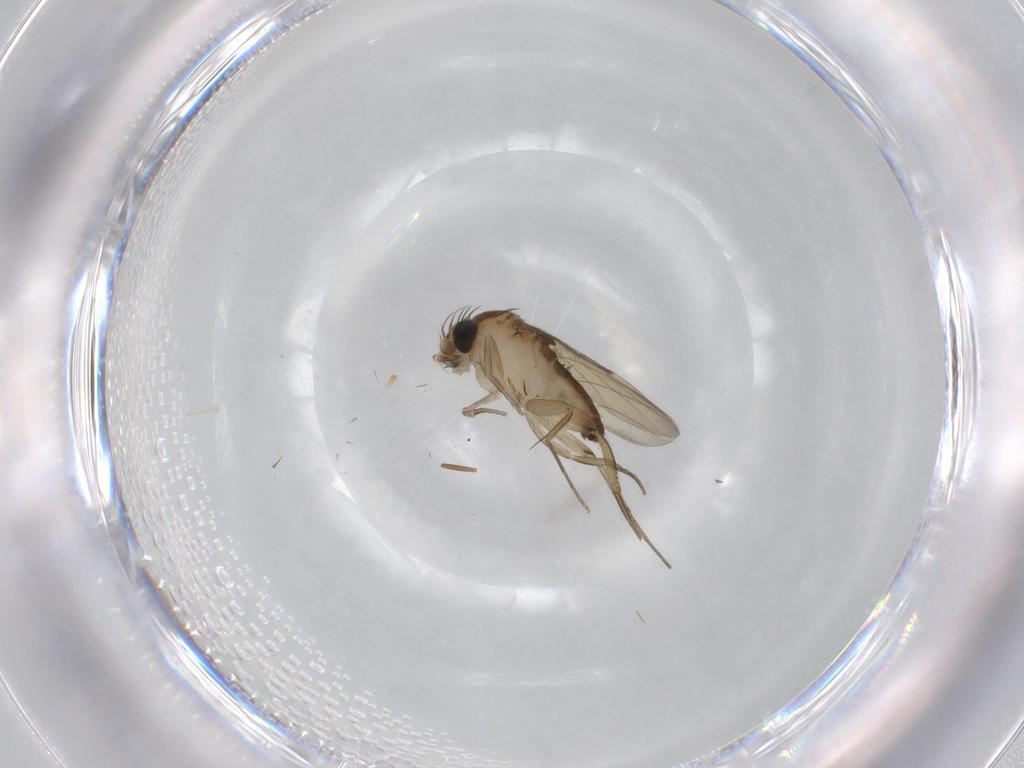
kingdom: Animalia
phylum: Arthropoda
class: Insecta
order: Diptera
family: Phoridae
